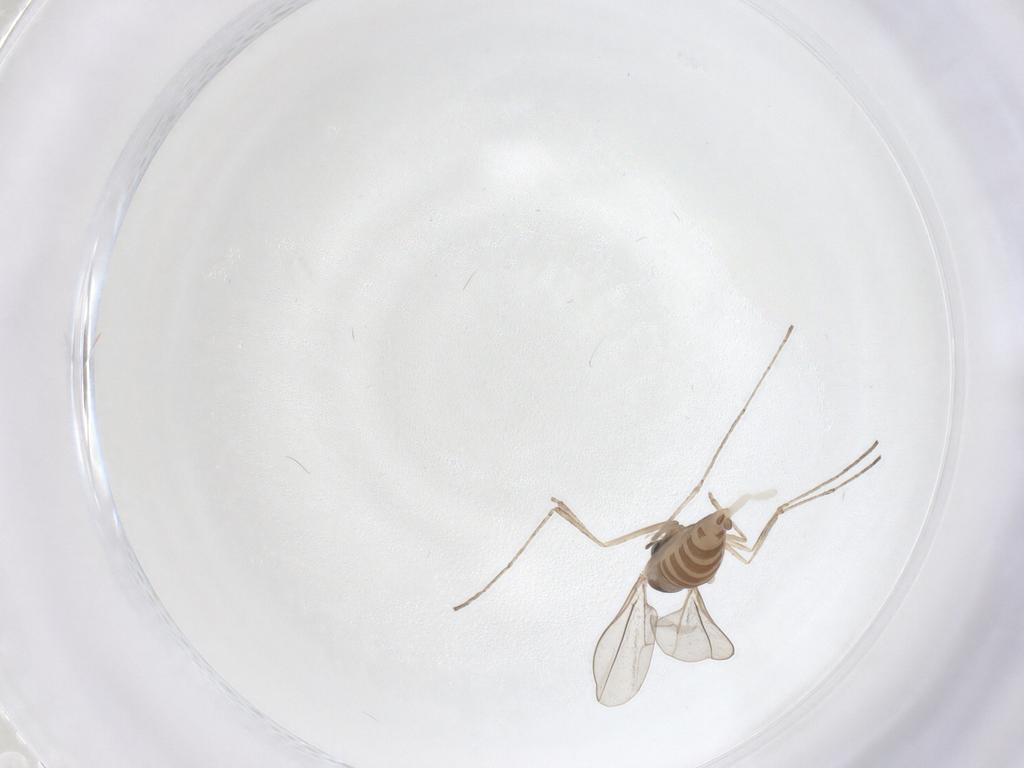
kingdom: Animalia
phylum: Arthropoda
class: Insecta
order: Diptera
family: Cecidomyiidae
